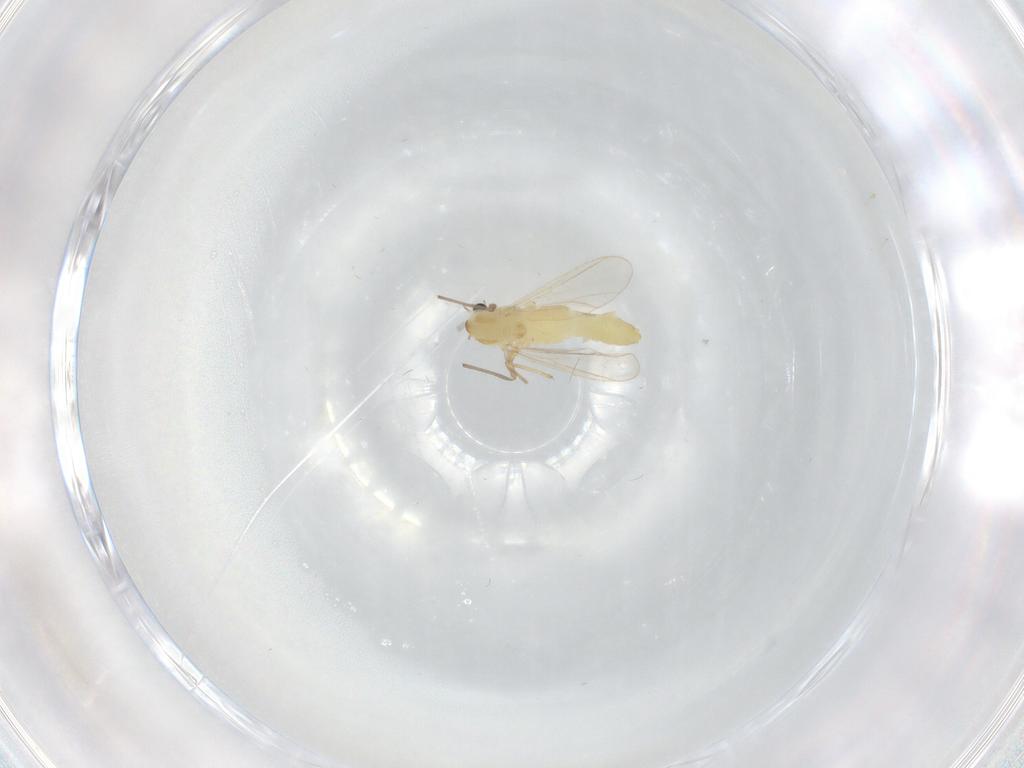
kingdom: Animalia
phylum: Arthropoda
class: Insecta
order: Diptera
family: Chironomidae
